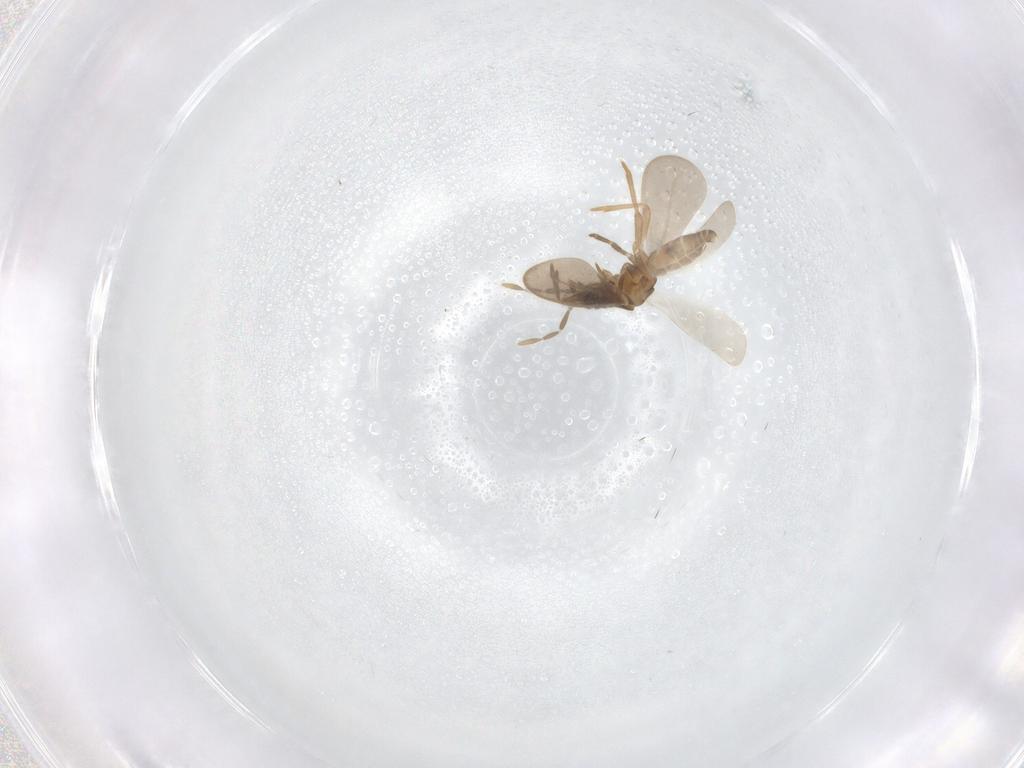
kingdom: Animalia
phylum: Arthropoda
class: Insecta
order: Hemiptera
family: Enicocephalidae
